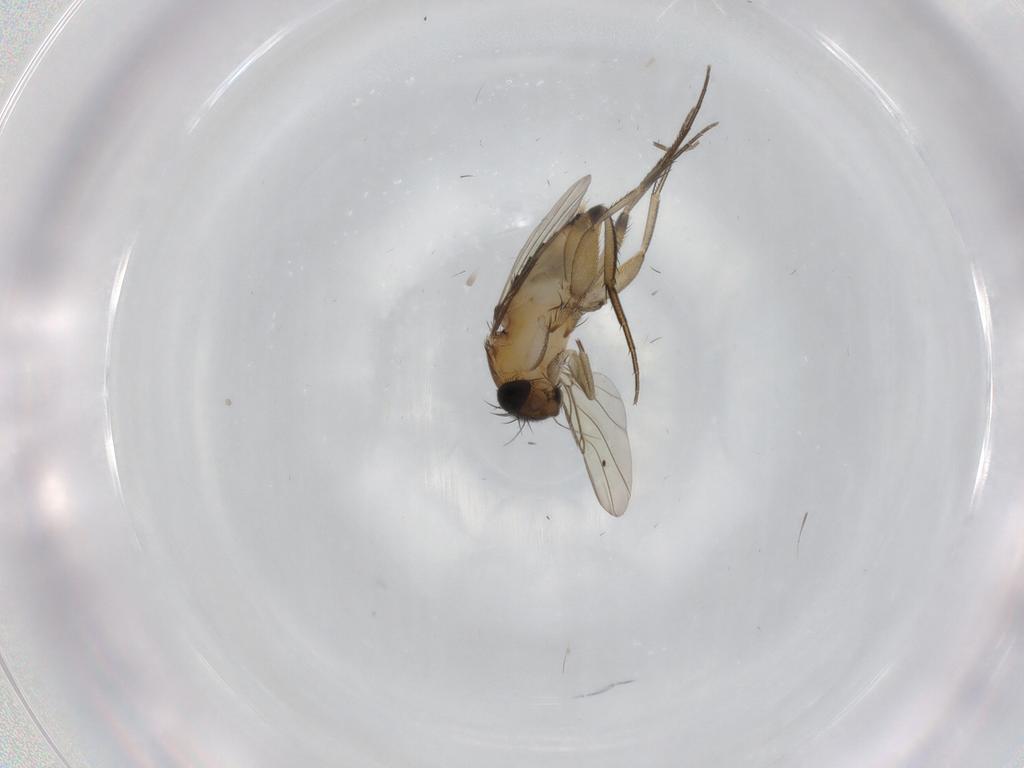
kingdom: Animalia
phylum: Arthropoda
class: Insecta
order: Diptera
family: Phoridae
